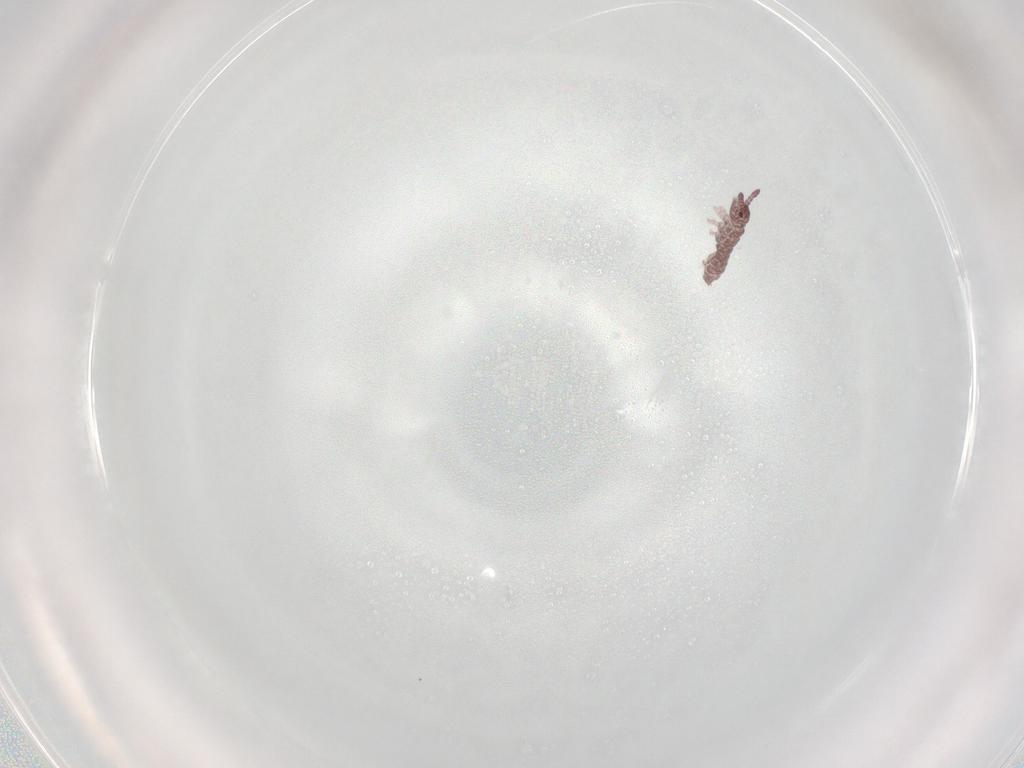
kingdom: Animalia
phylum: Arthropoda
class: Collembola
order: Poduromorpha
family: Hypogastruridae
